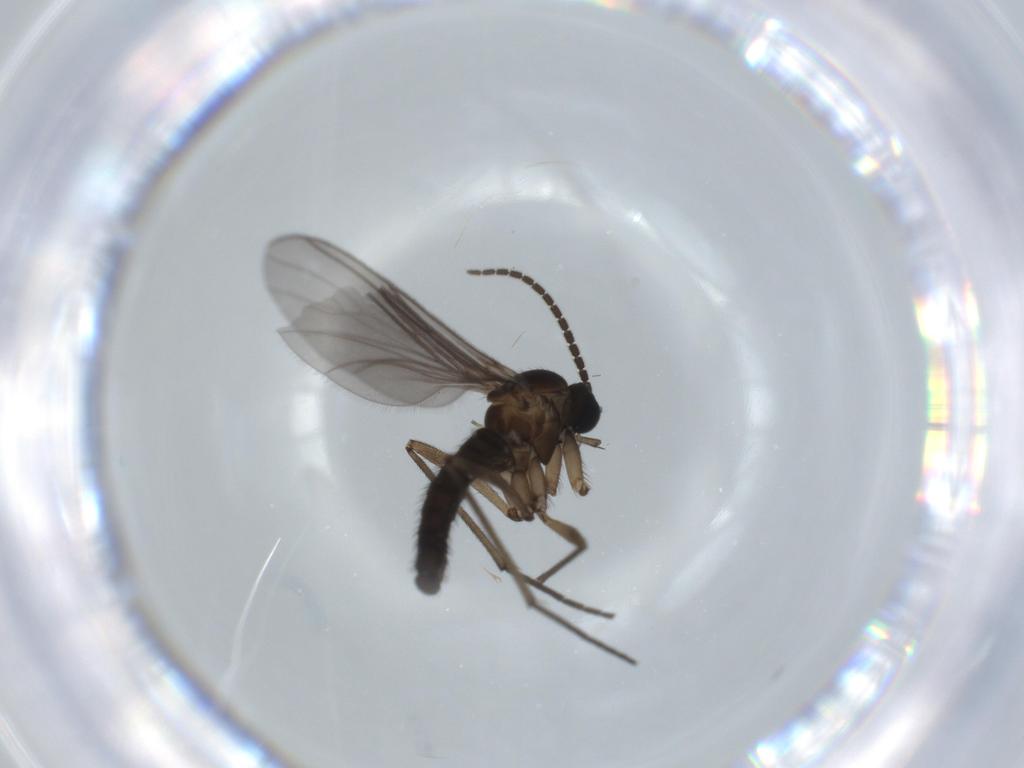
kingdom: Animalia
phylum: Arthropoda
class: Insecta
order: Diptera
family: Sciaridae
